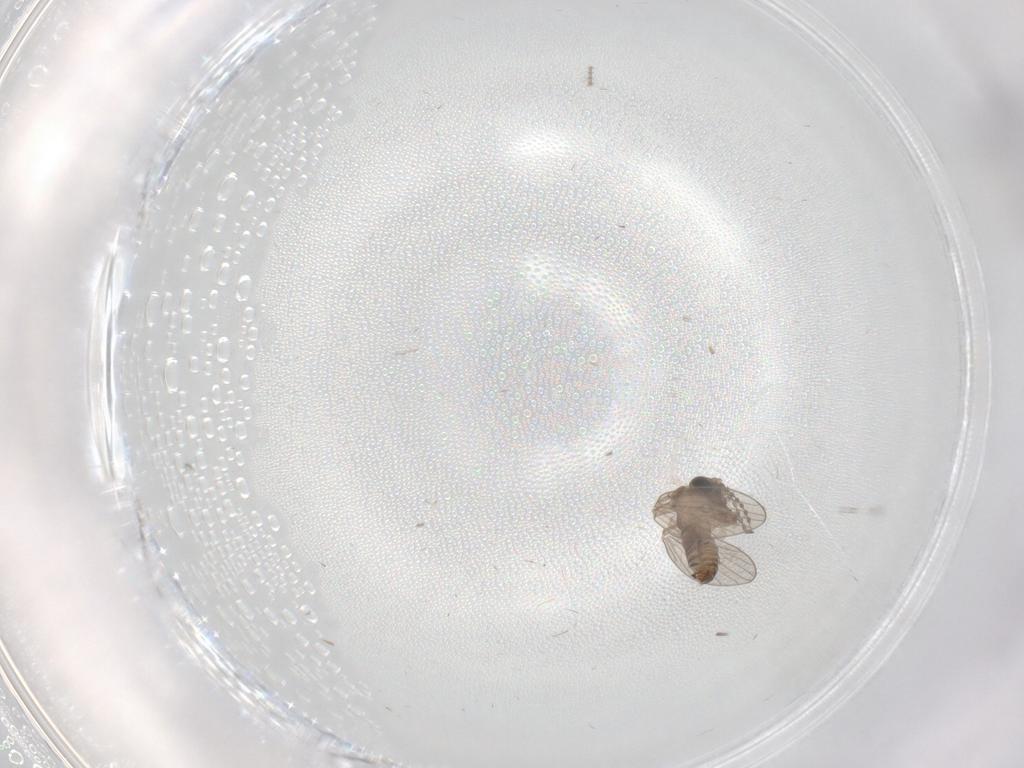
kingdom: Animalia
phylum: Arthropoda
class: Insecta
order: Diptera
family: Chironomidae
